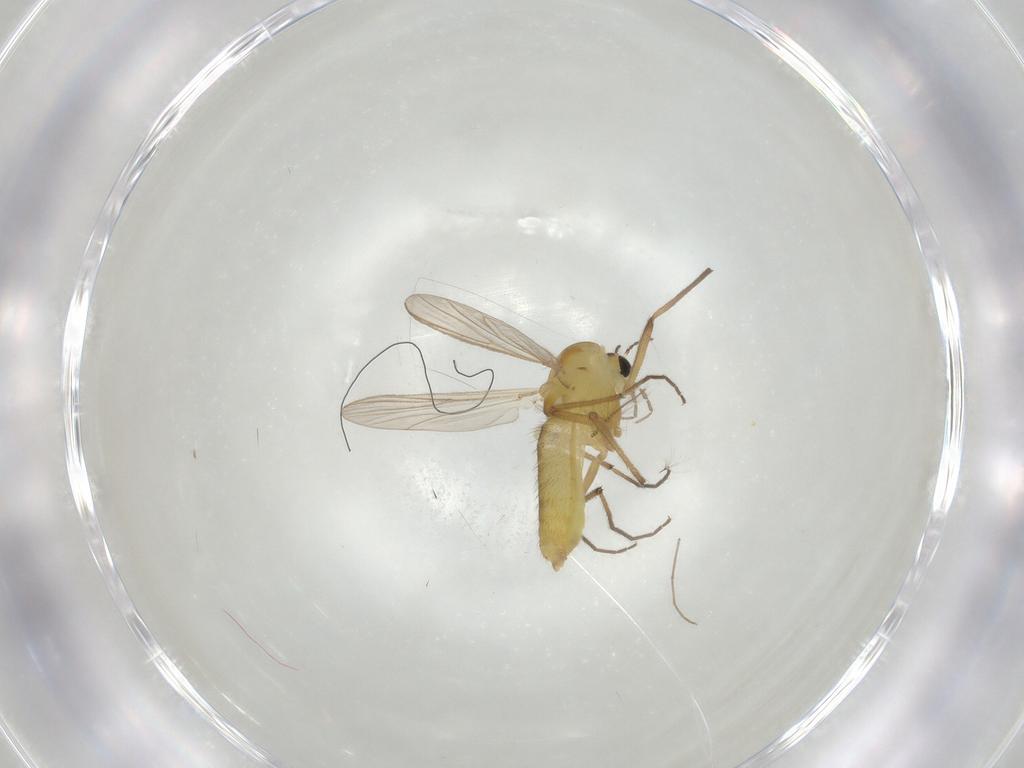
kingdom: Animalia
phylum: Arthropoda
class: Insecta
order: Diptera
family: Chironomidae
